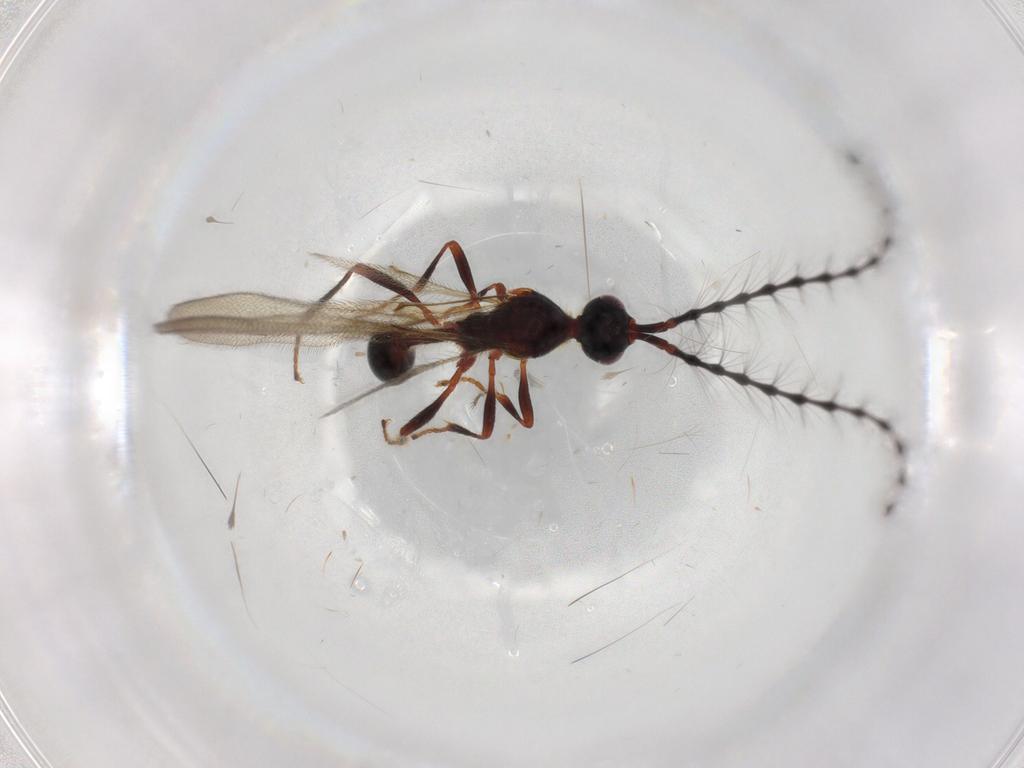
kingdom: Animalia
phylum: Arthropoda
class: Insecta
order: Hymenoptera
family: Diapriidae
